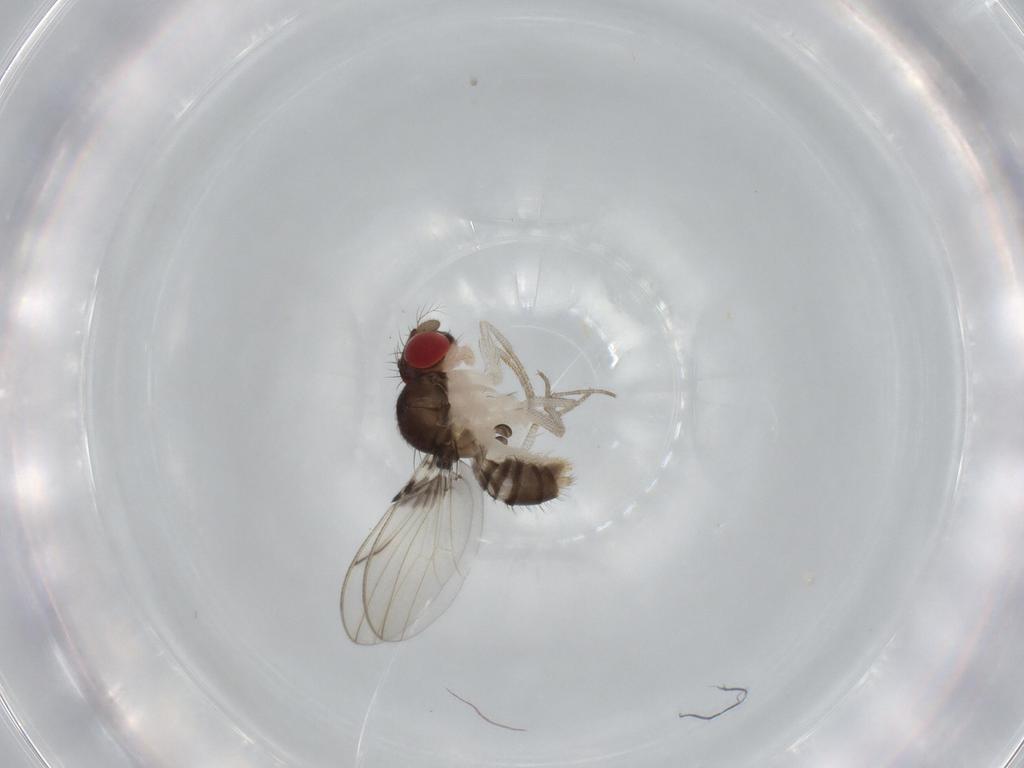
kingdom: Animalia
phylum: Arthropoda
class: Insecta
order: Diptera
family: Drosophilidae
